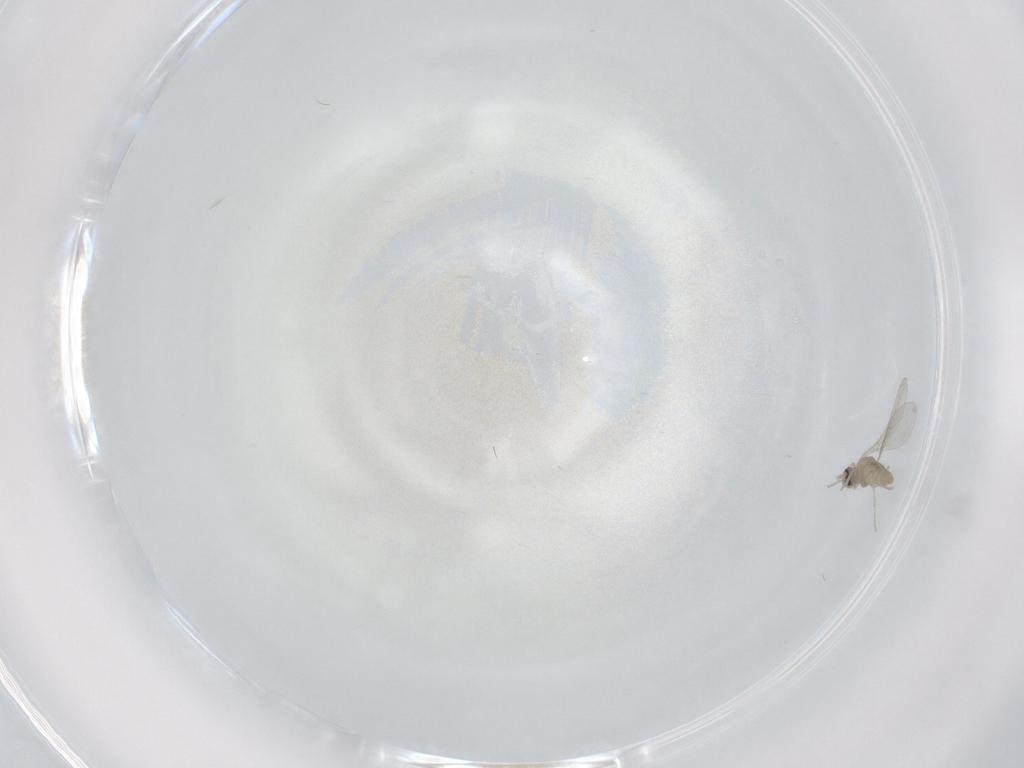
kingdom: Animalia
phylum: Arthropoda
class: Insecta
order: Diptera
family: Cecidomyiidae
